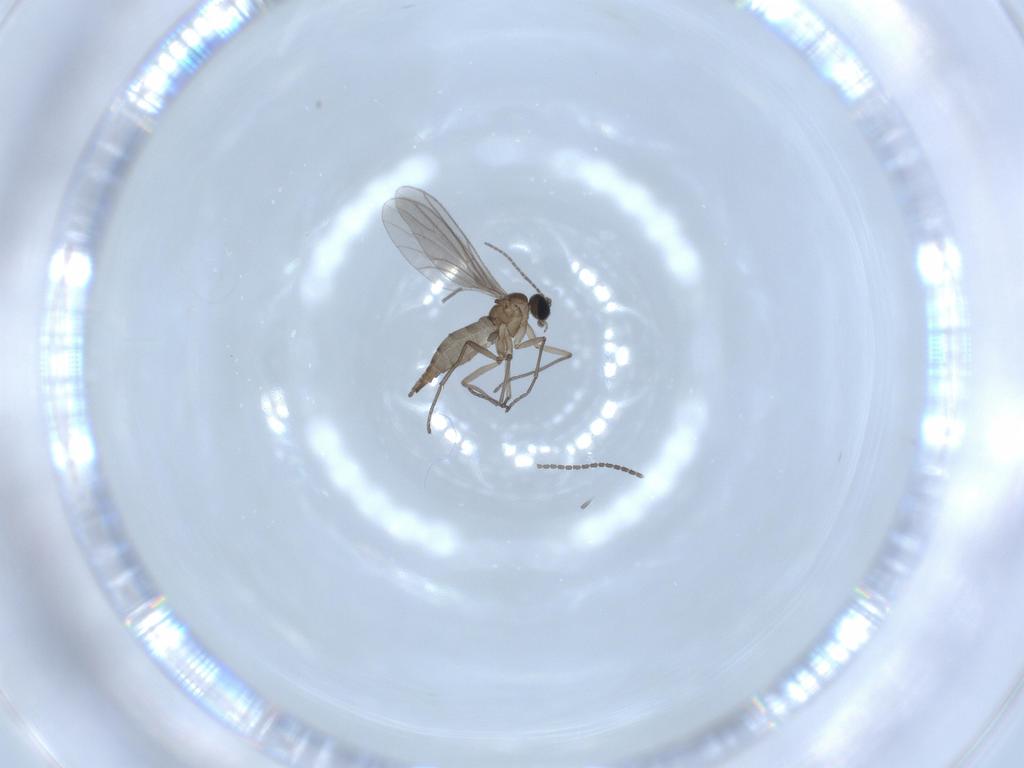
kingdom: Animalia
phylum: Arthropoda
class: Insecta
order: Diptera
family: Sciaridae
